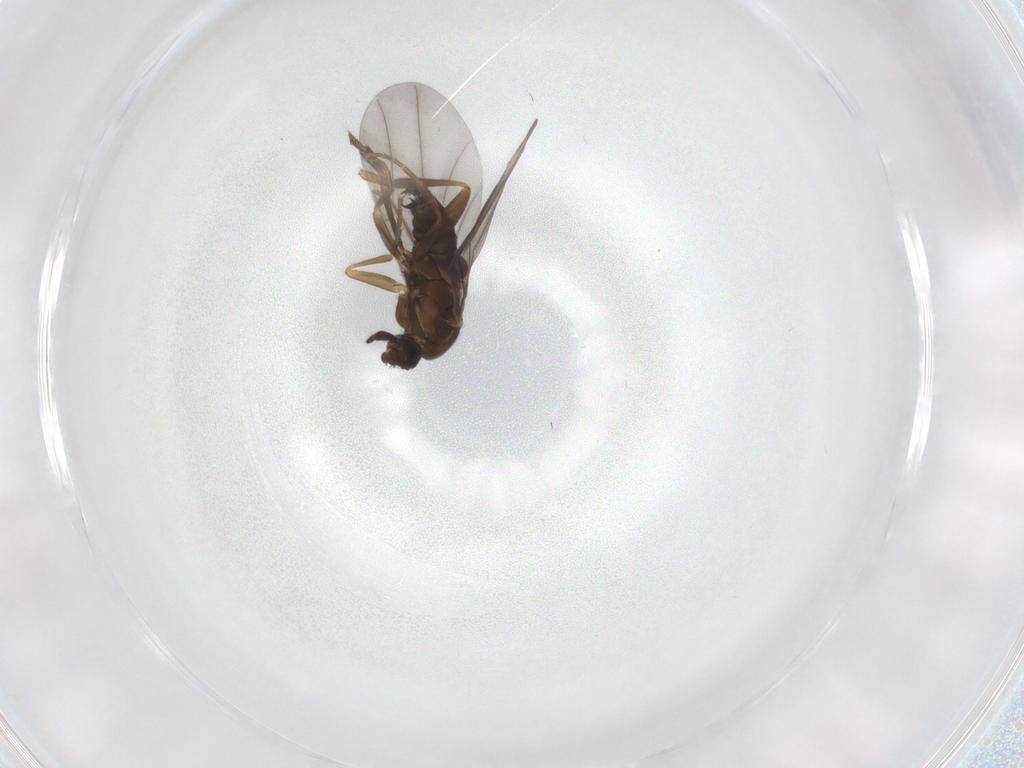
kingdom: Animalia
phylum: Arthropoda
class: Insecta
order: Diptera
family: Phoridae
